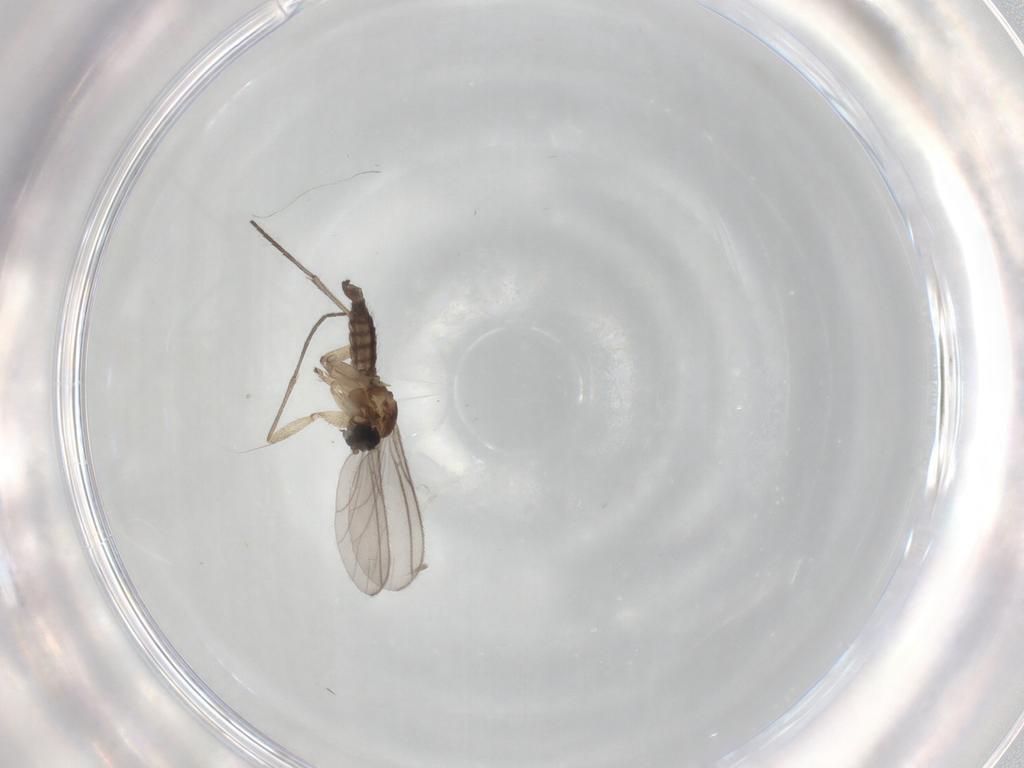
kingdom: Animalia
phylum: Arthropoda
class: Insecta
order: Diptera
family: Sciaridae
